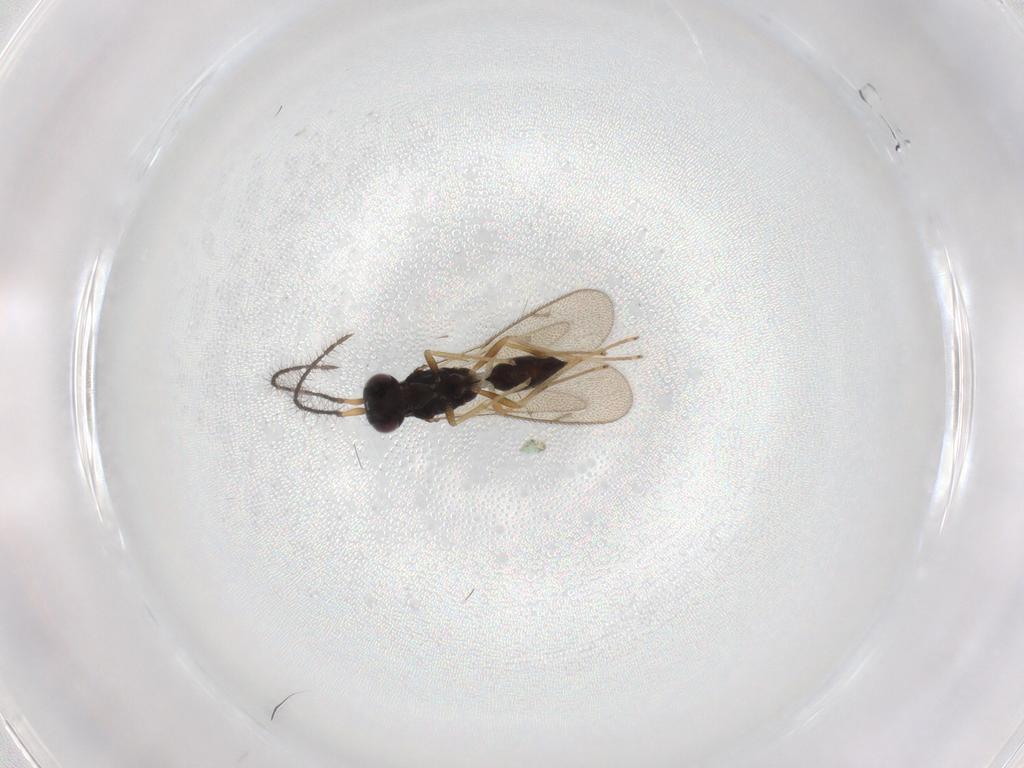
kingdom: Animalia
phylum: Arthropoda
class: Insecta
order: Hymenoptera
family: Diparidae
